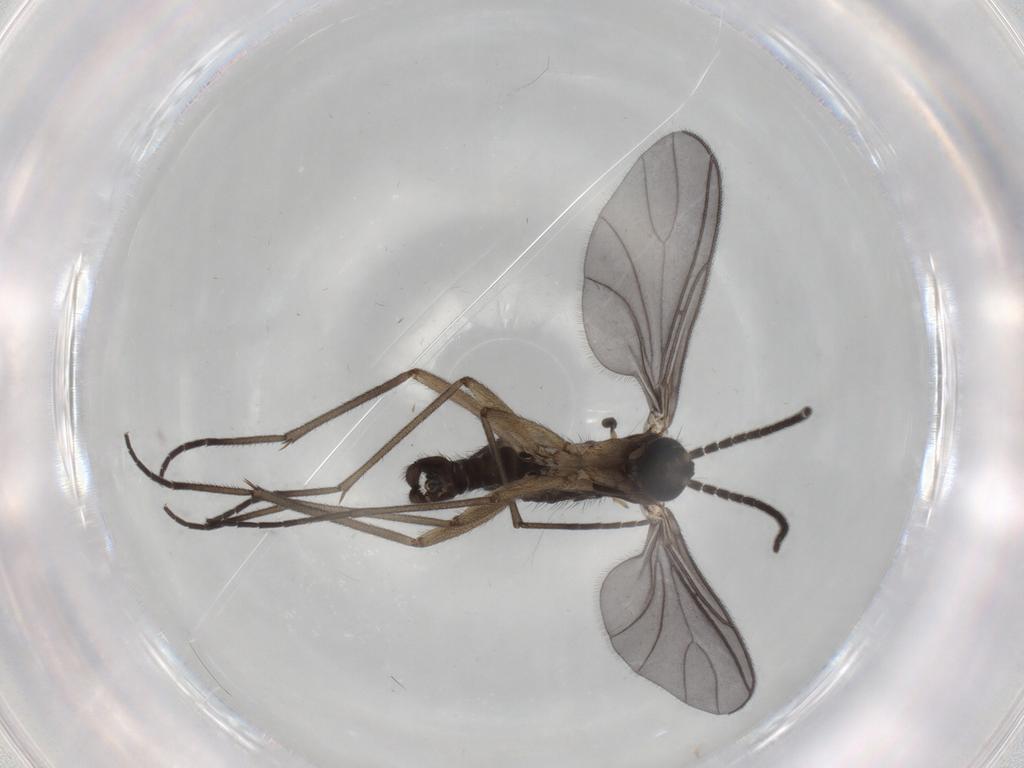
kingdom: Animalia
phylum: Arthropoda
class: Insecta
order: Diptera
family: Sciaridae
